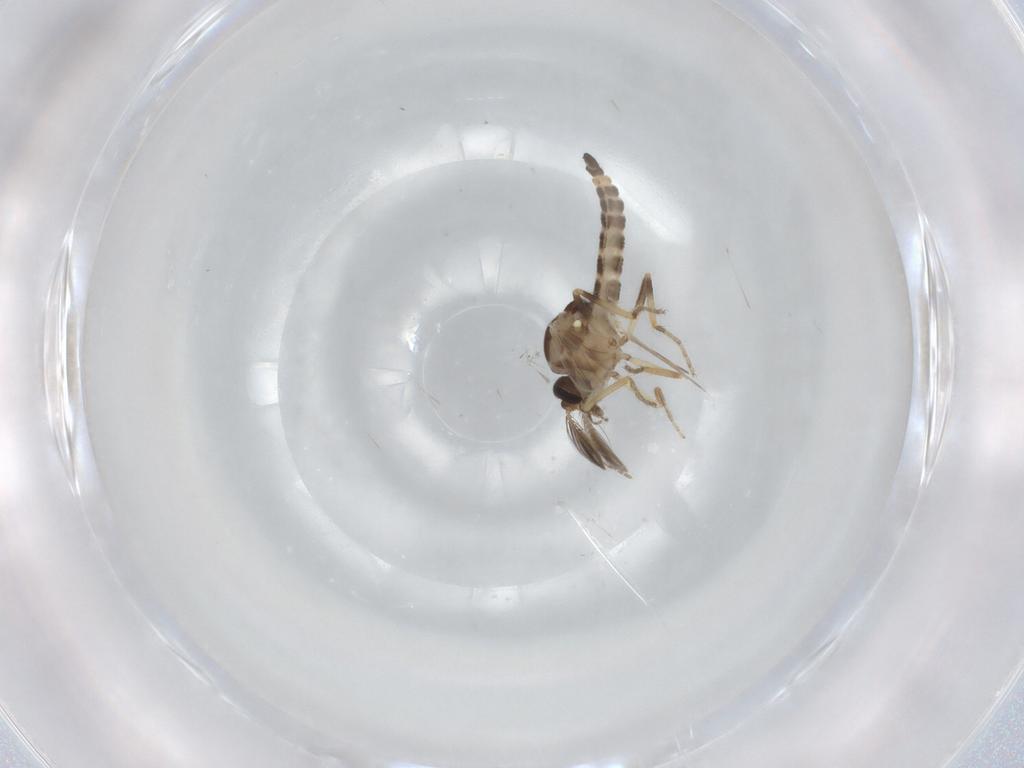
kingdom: Animalia
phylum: Arthropoda
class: Insecta
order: Diptera
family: Ceratopogonidae
